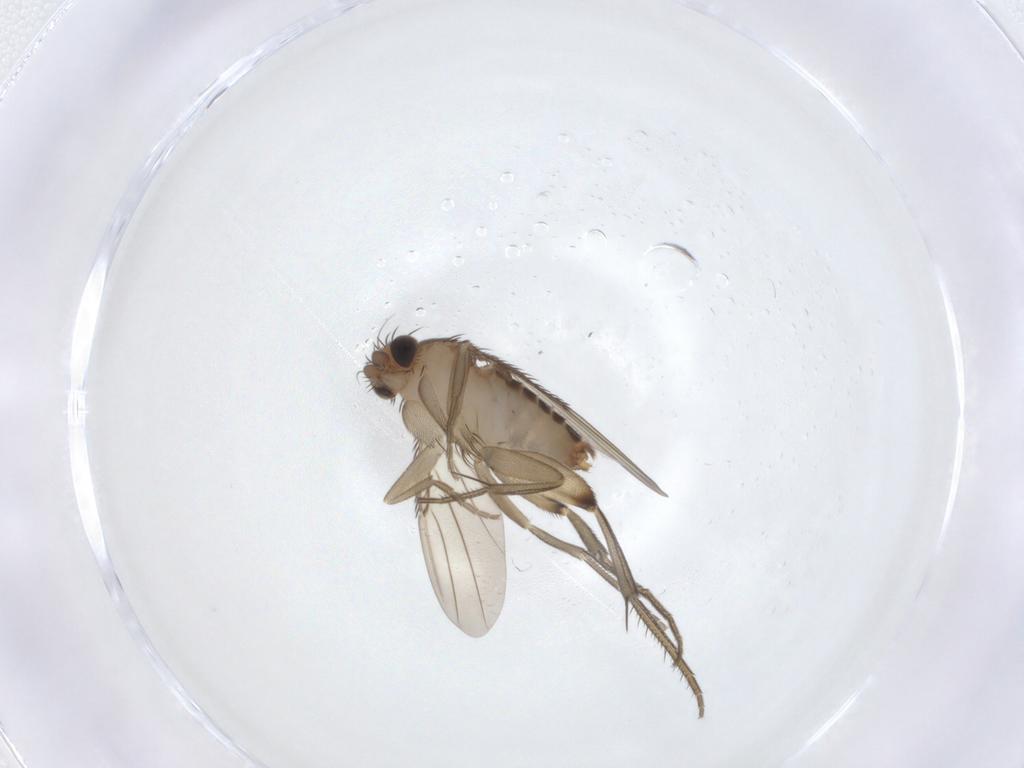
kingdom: Animalia
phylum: Arthropoda
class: Insecta
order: Diptera
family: Phoridae
